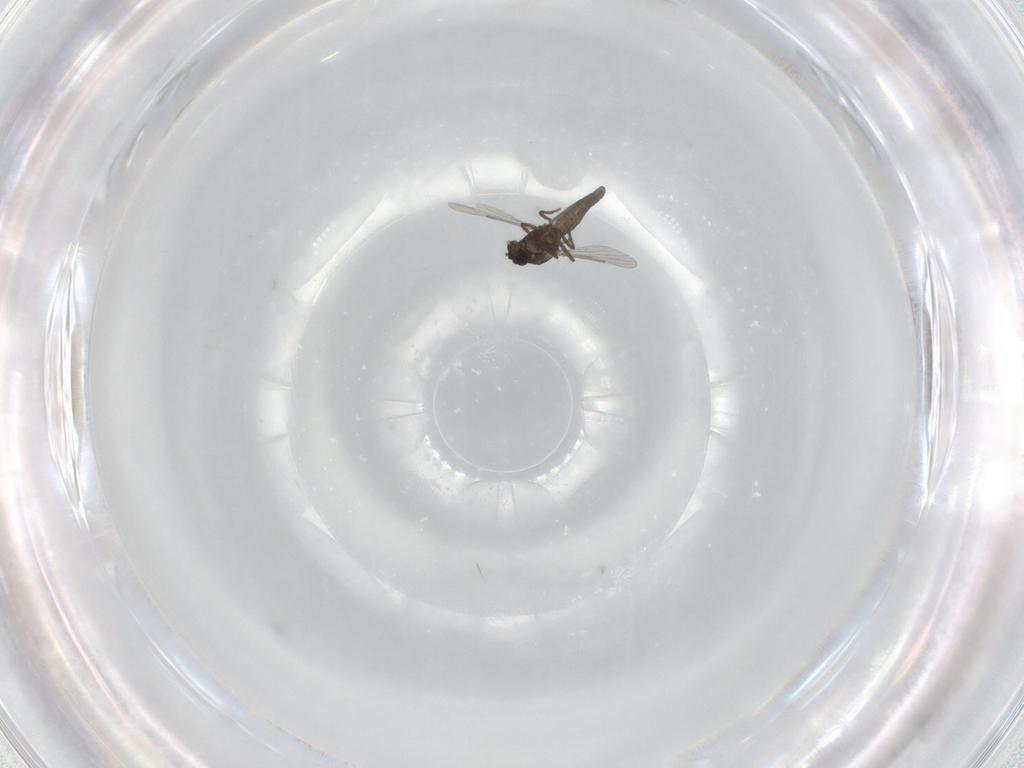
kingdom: Animalia
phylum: Arthropoda
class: Insecta
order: Diptera
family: Ceratopogonidae
